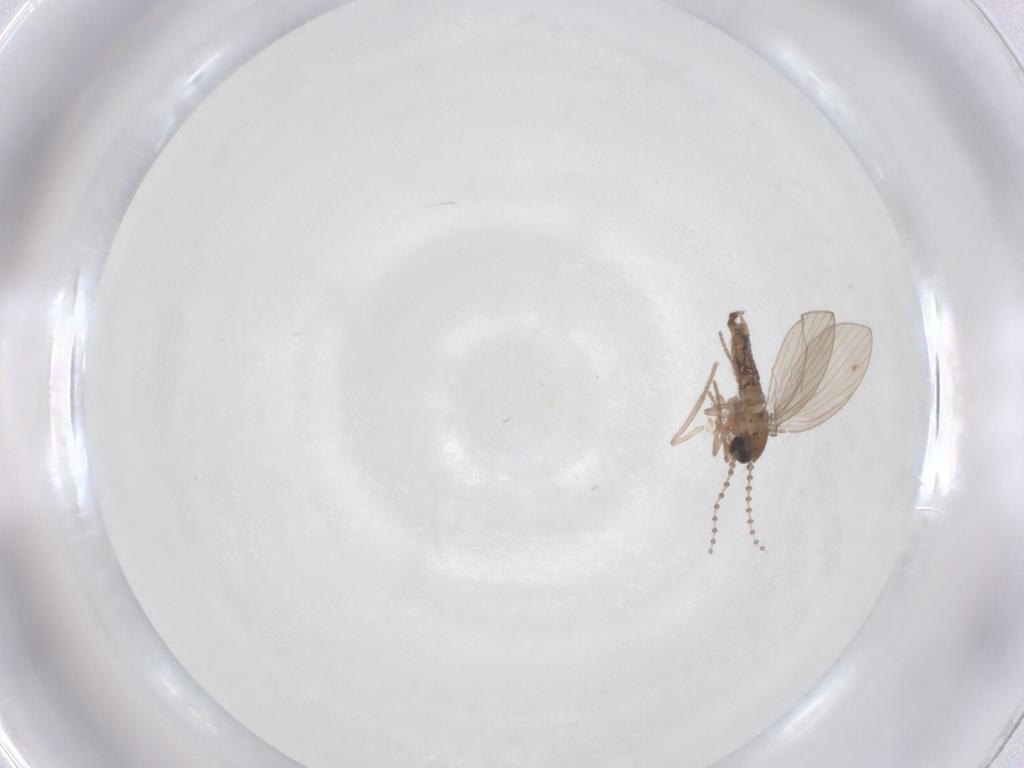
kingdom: Animalia
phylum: Arthropoda
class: Insecta
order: Diptera
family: Psychodidae
